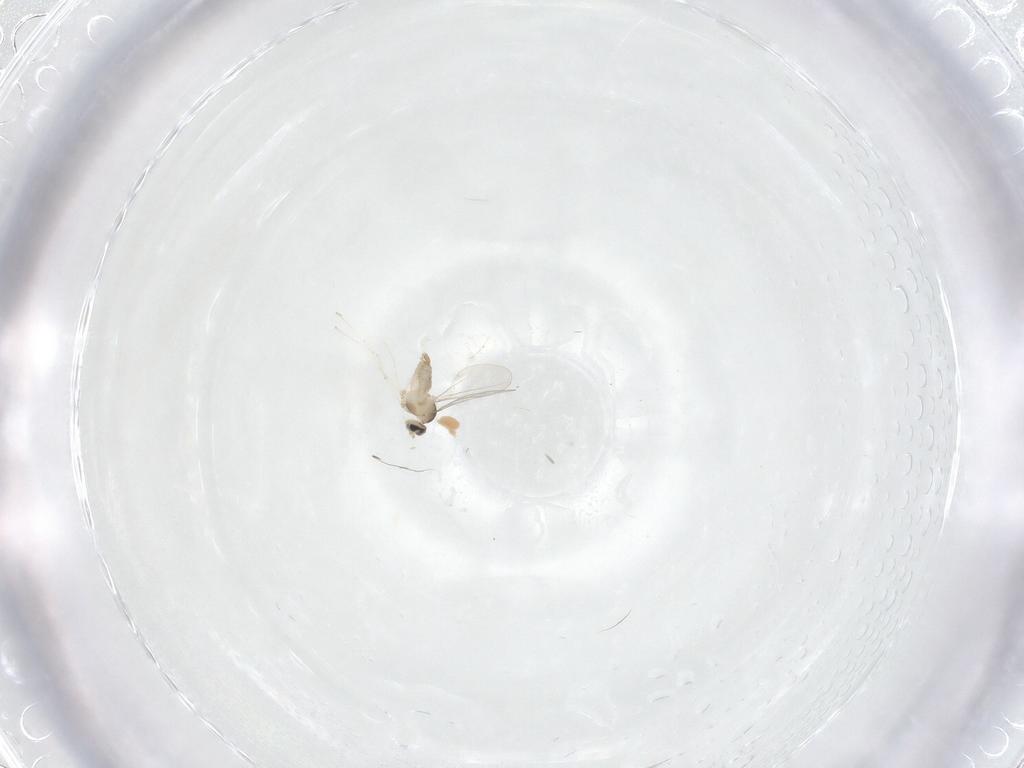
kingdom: Animalia
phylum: Arthropoda
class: Insecta
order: Diptera
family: Cecidomyiidae
